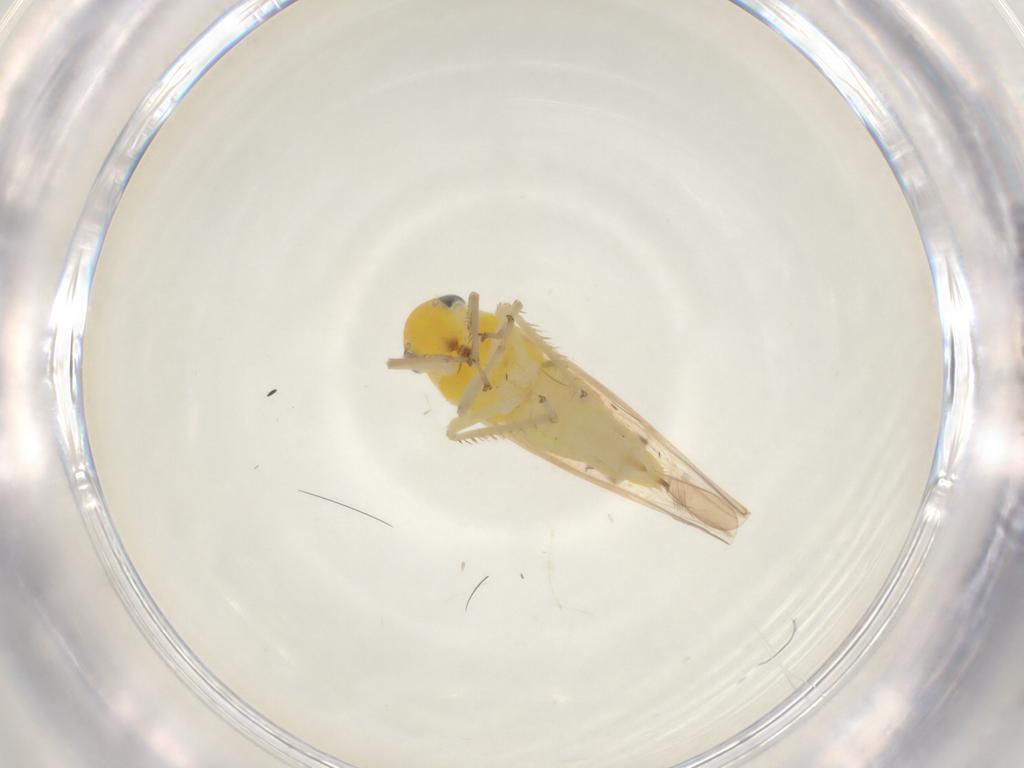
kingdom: Animalia
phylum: Arthropoda
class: Insecta
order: Hemiptera
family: Cicadellidae
